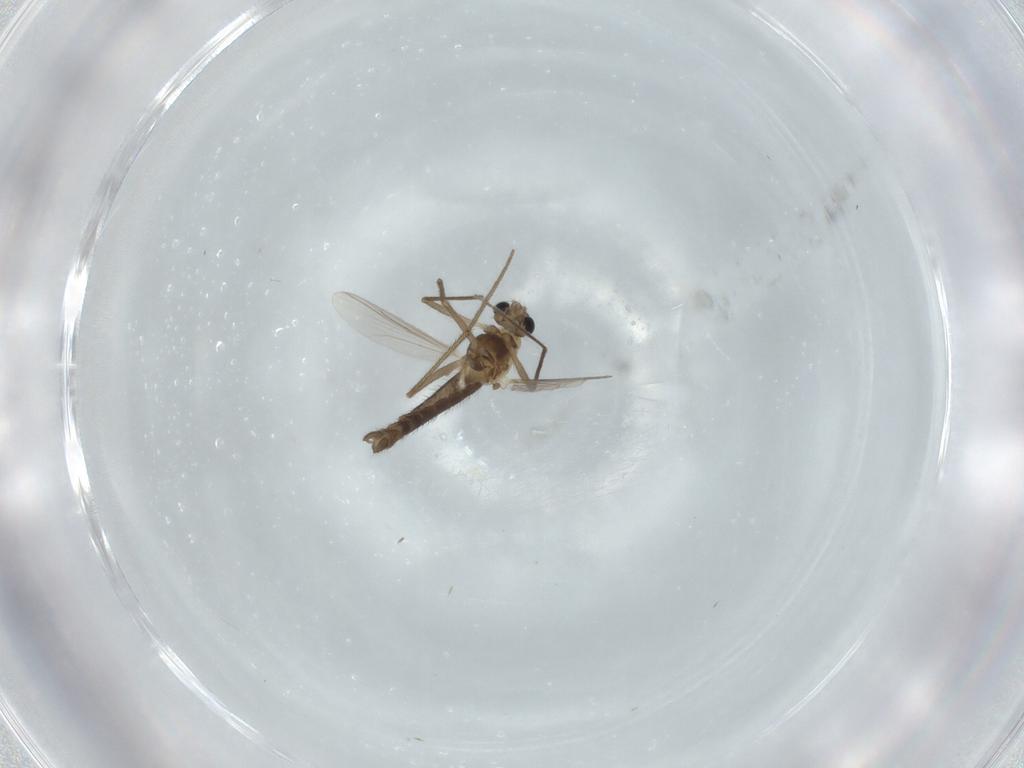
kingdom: Animalia
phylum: Arthropoda
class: Insecta
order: Diptera
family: Chironomidae
